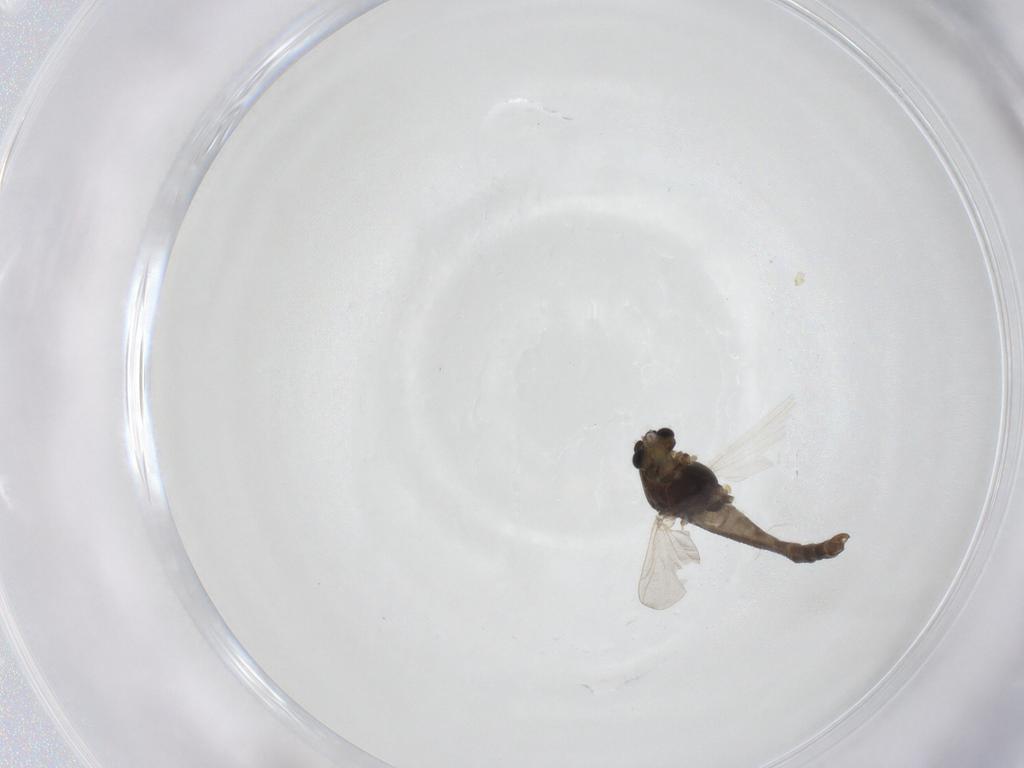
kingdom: Animalia
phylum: Arthropoda
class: Insecta
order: Diptera
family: Chironomidae
